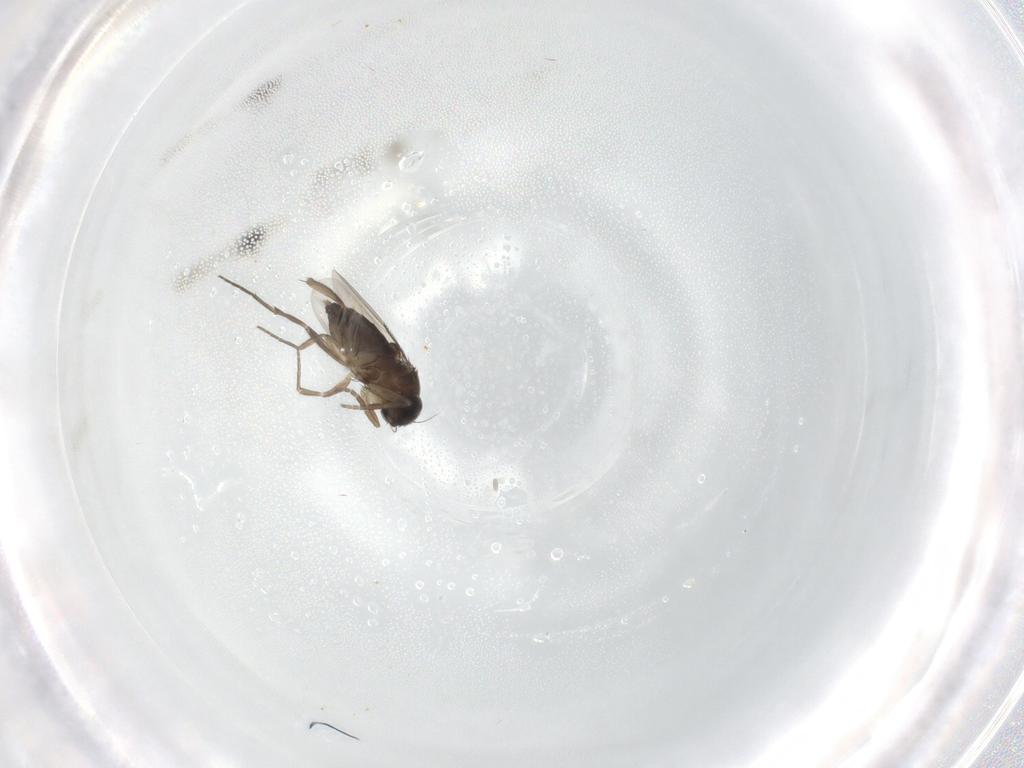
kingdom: Animalia
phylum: Arthropoda
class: Insecta
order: Diptera
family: Phoridae
